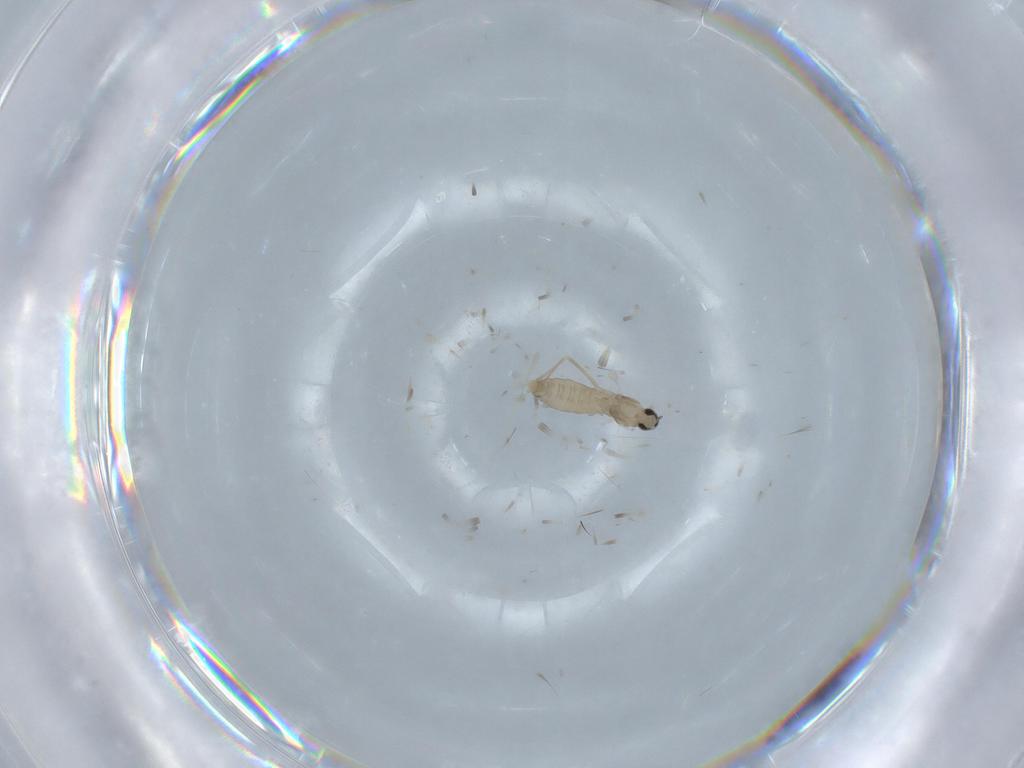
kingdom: Animalia
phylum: Arthropoda
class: Insecta
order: Diptera
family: Cecidomyiidae
